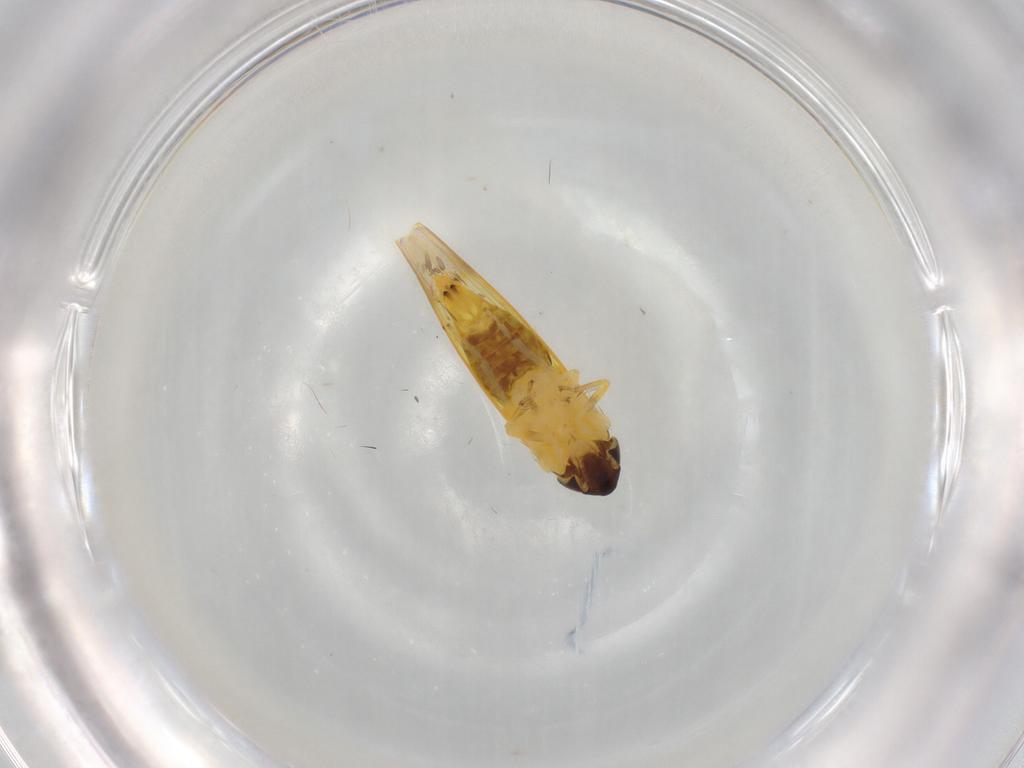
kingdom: Animalia
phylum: Arthropoda
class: Insecta
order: Hemiptera
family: Cicadellidae
